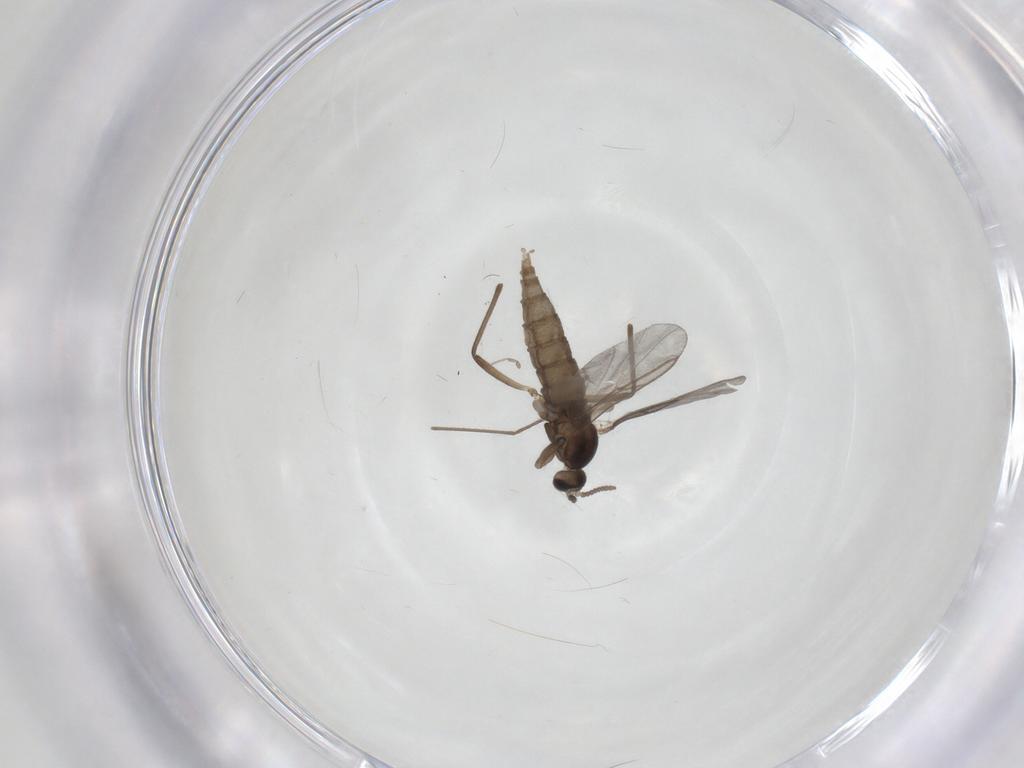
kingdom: Animalia
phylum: Arthropoda
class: Insecta
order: Diptera
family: Cecidomyiidae
